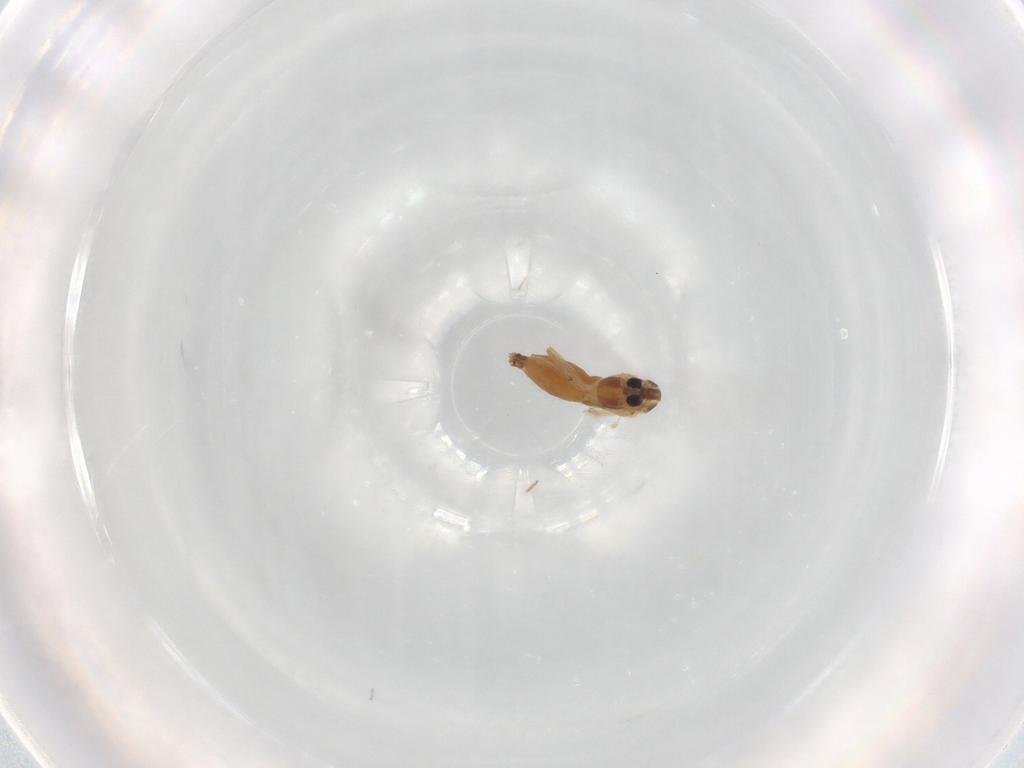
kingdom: Animalia
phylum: Arthropoda
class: Insecta
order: Diptera
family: Chironomidae
